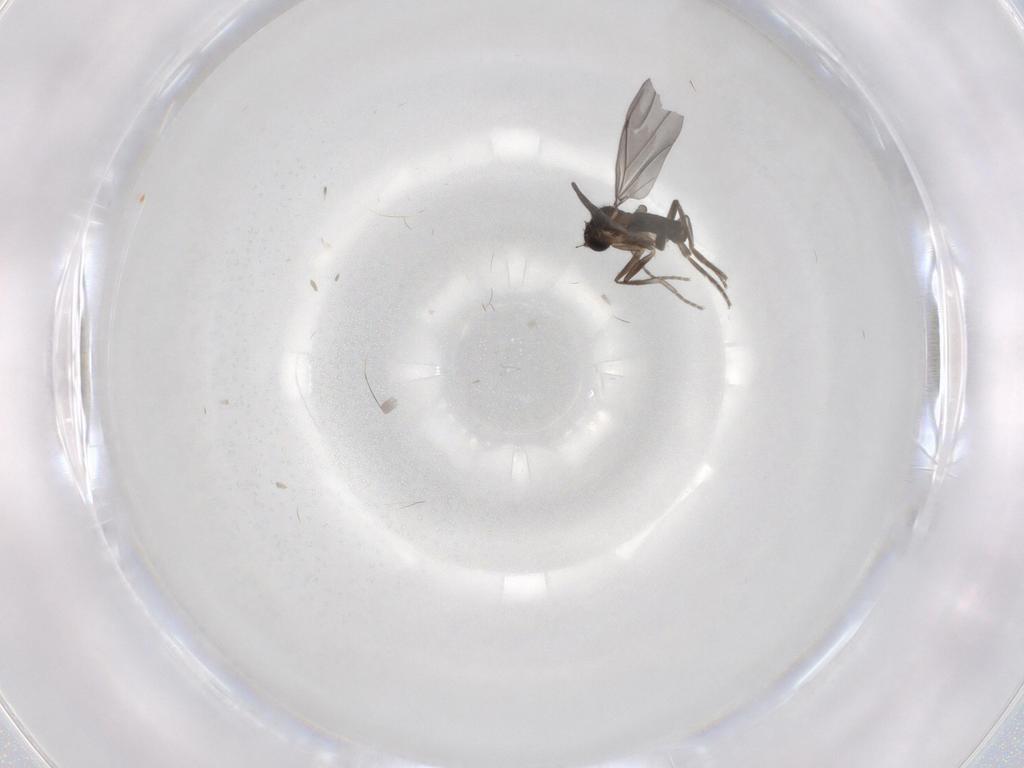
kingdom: Animalia
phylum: Arthropoda
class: Insecta
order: Diptera
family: Phoridae
